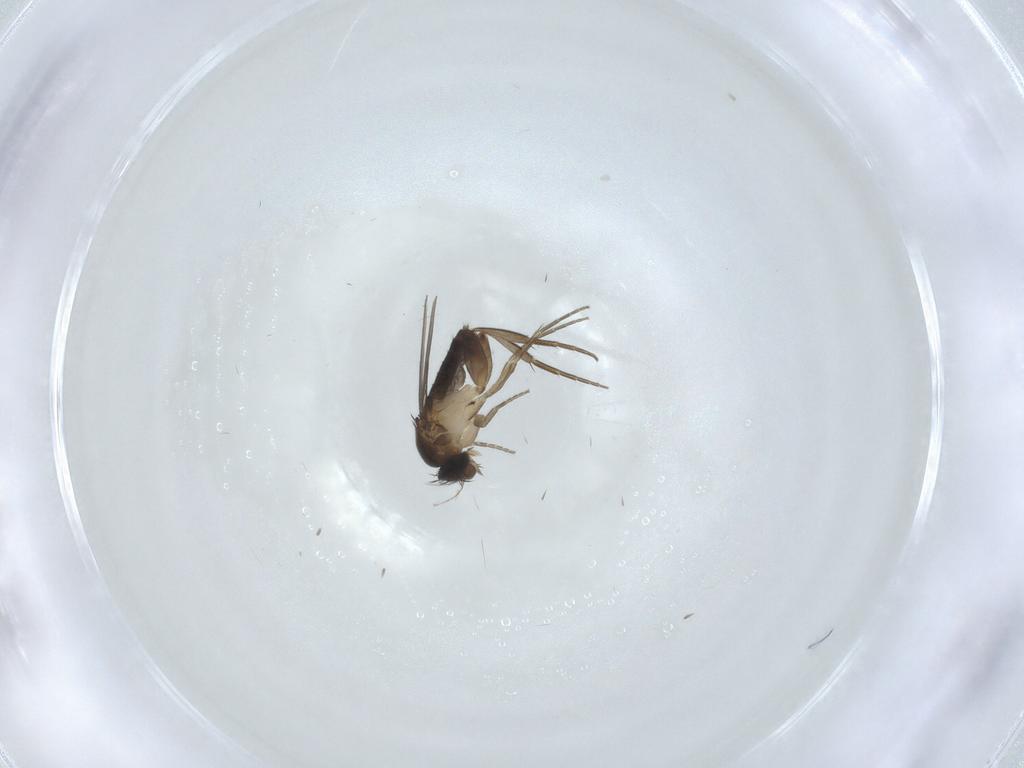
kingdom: Animalia
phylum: Arthropoda
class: Insecta
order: Diptera
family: Phoridae
